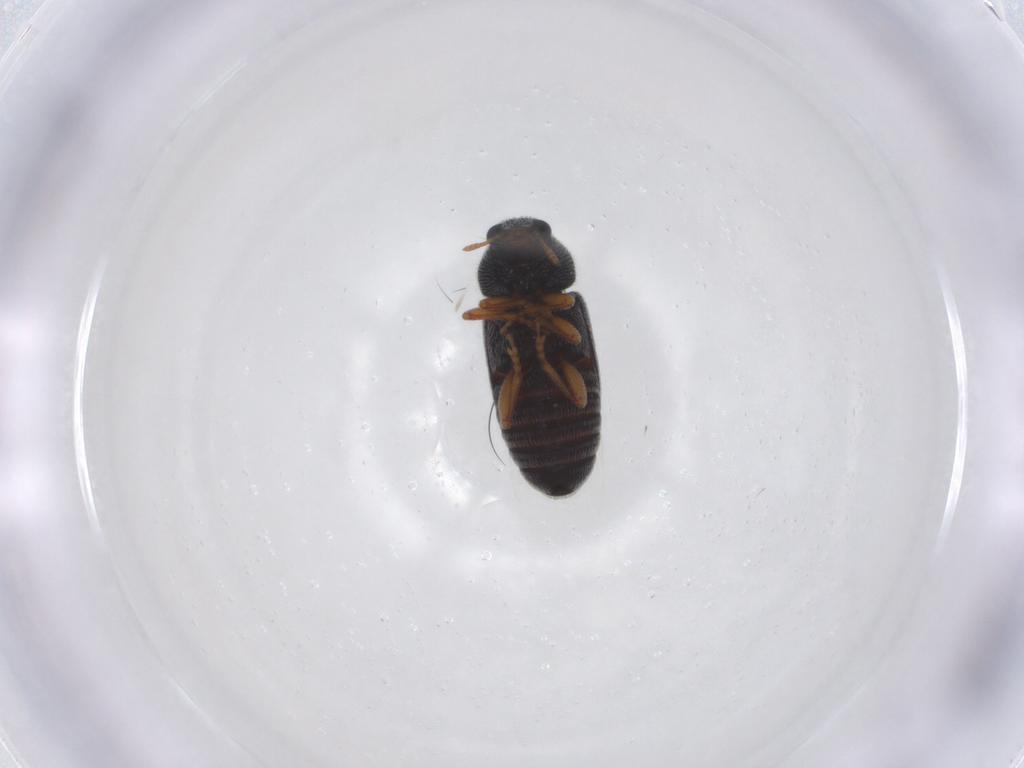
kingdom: Animalia
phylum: Arthropoda
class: Insecta
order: Coleoptera
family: Anthribidae
